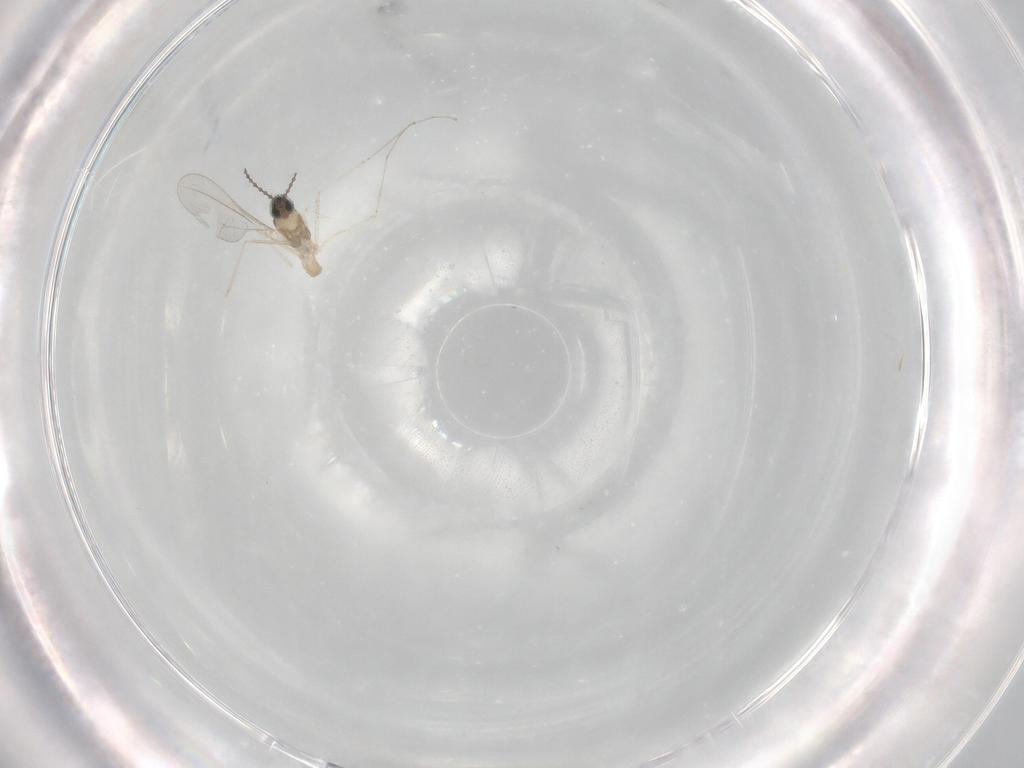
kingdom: Animalia
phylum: Arthropoda
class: Insecta
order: Diptera
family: Cecidomyiidae
